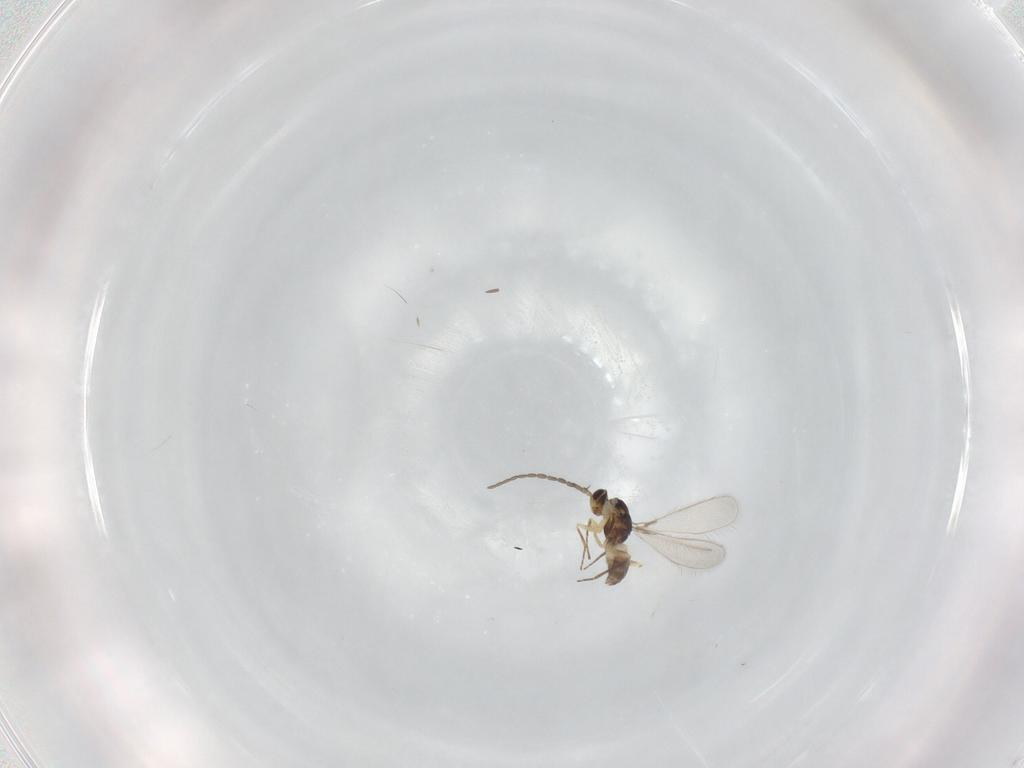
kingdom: Animalia
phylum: Arthropoda
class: Insecta
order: Hymenoptera
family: Mymaridae
